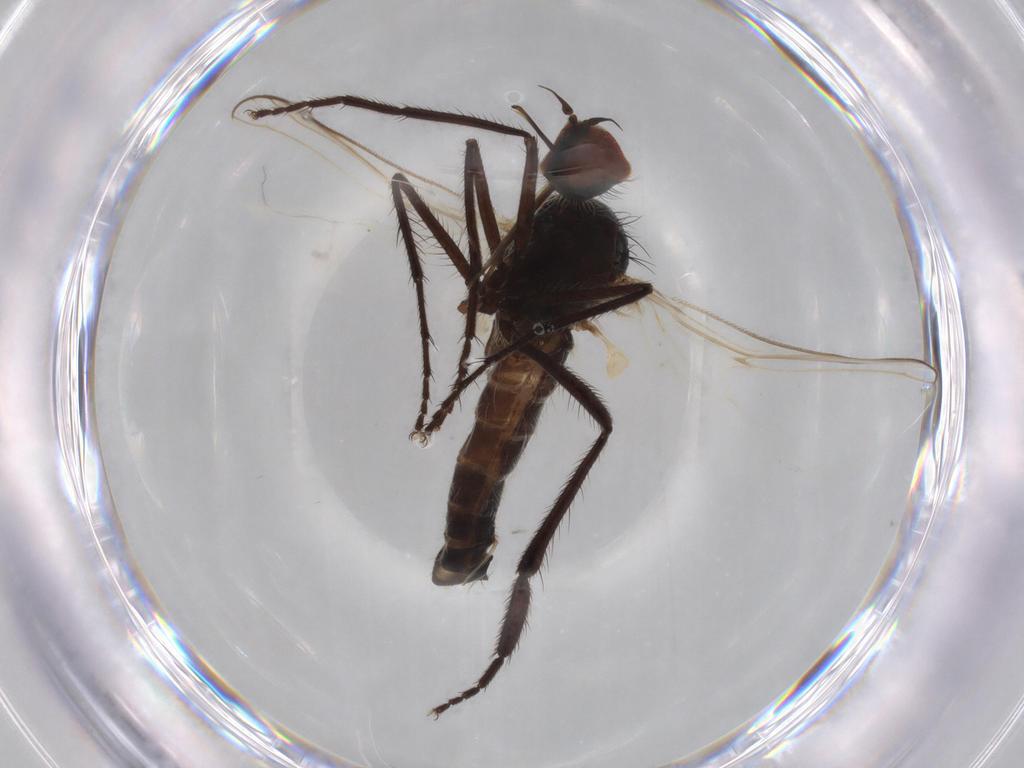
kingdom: Animalia
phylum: Arthropoda
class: Insecta
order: Diptera
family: Empididae
